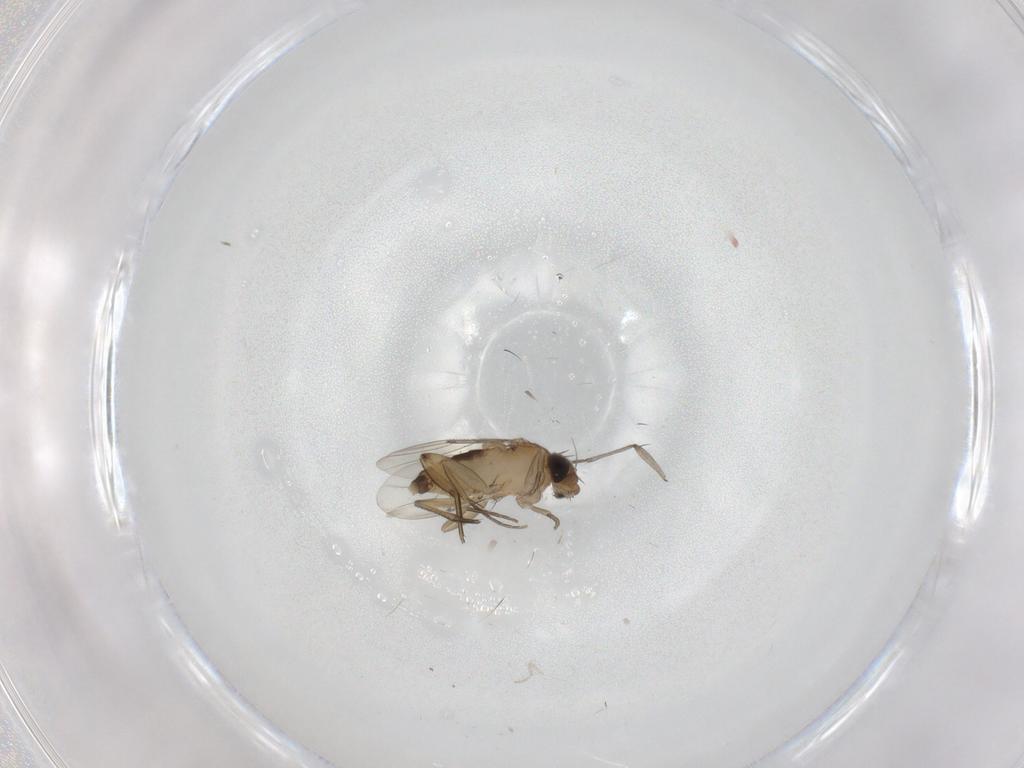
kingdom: Animalia
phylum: Arthropoda
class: Insecta
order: Diptera
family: Phoridae
